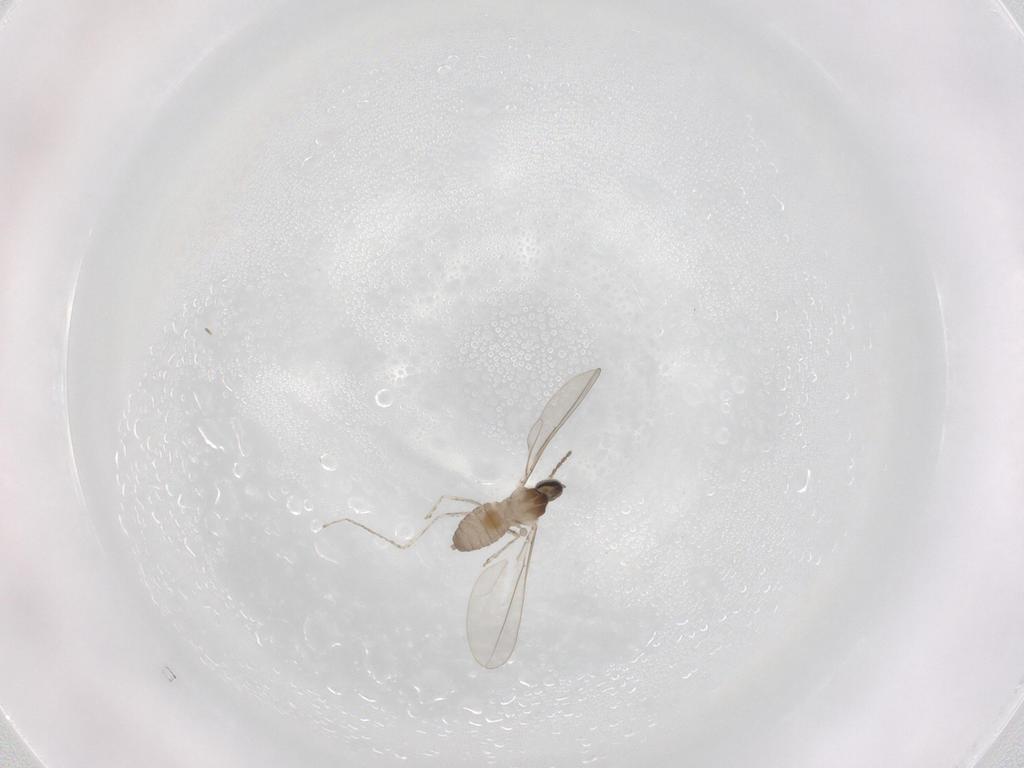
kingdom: Animalia
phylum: Arthropoda
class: Insecta
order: Diptera
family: Cecidomyiidae
